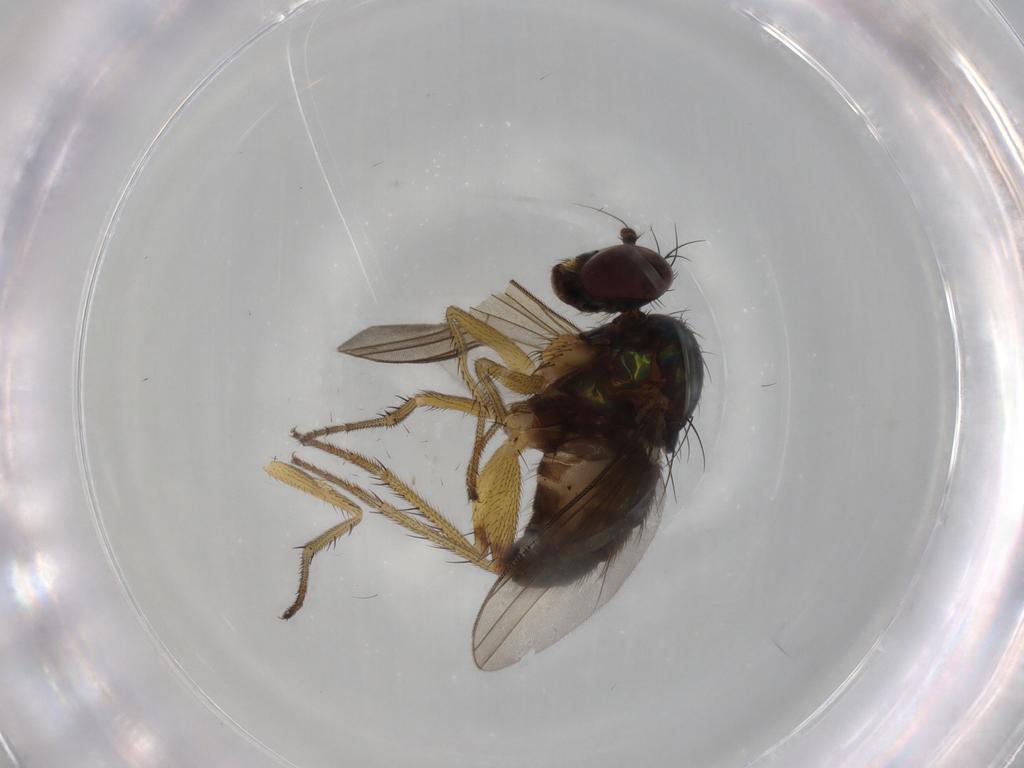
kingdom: Animalia
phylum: Arthropoda
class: Insecta
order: Diptera
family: Dolichopodidae
